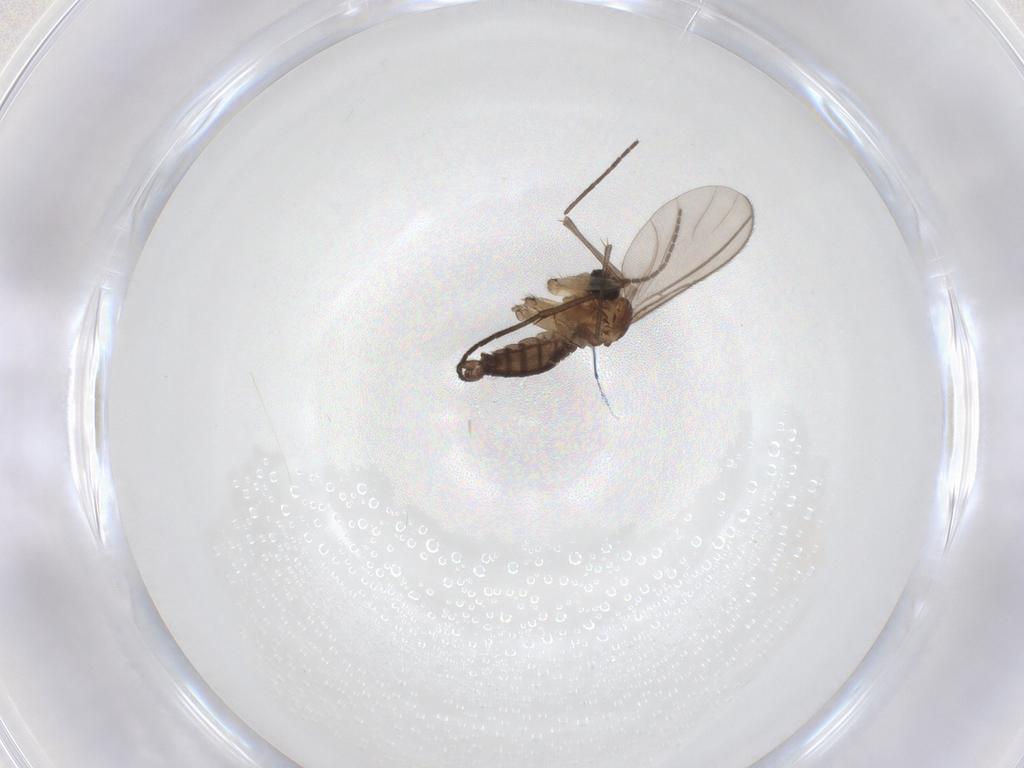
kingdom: Animalia
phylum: Arthropoda
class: Insecta
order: Diptera
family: Sciaridae
